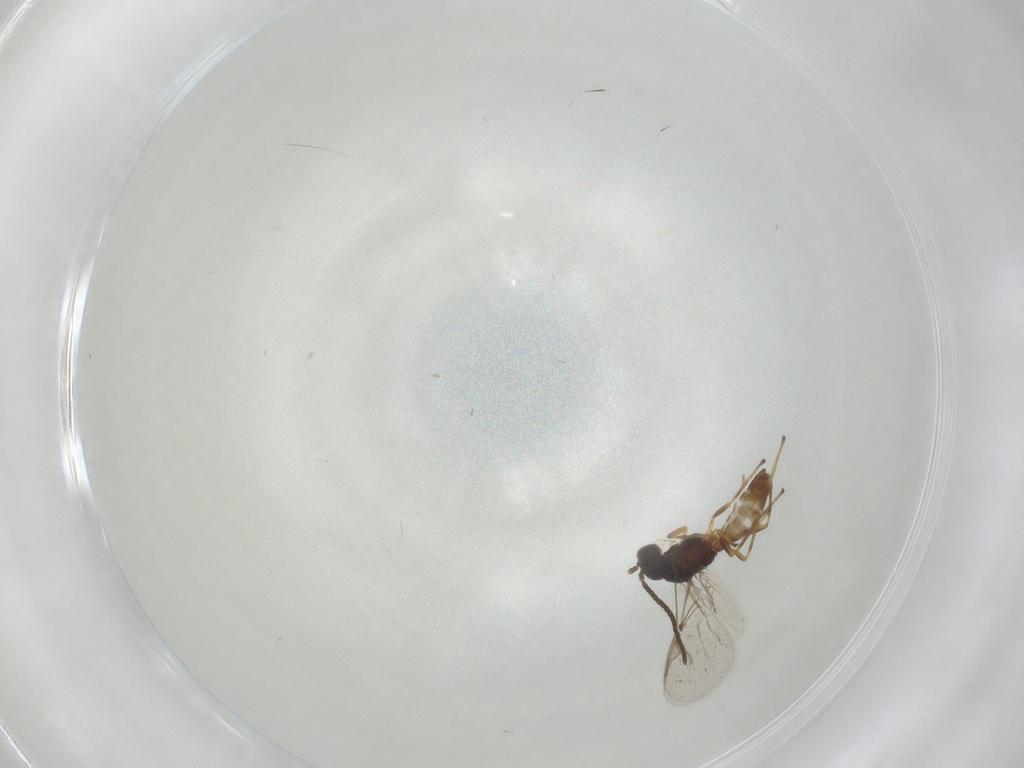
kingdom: Animalia
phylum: Arthropoda
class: Insecta
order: Hymenoptera
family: Braconidae
